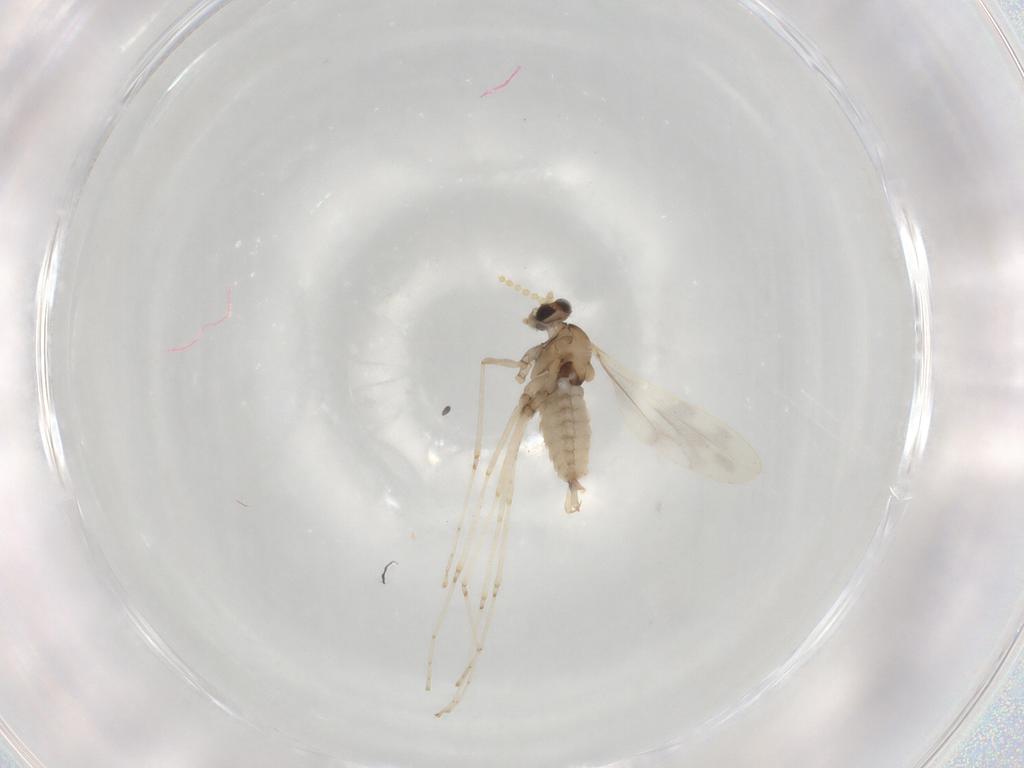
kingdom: Animalia
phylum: Arthropoda
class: Insecta
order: Diptera
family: Cecidomyiidae
